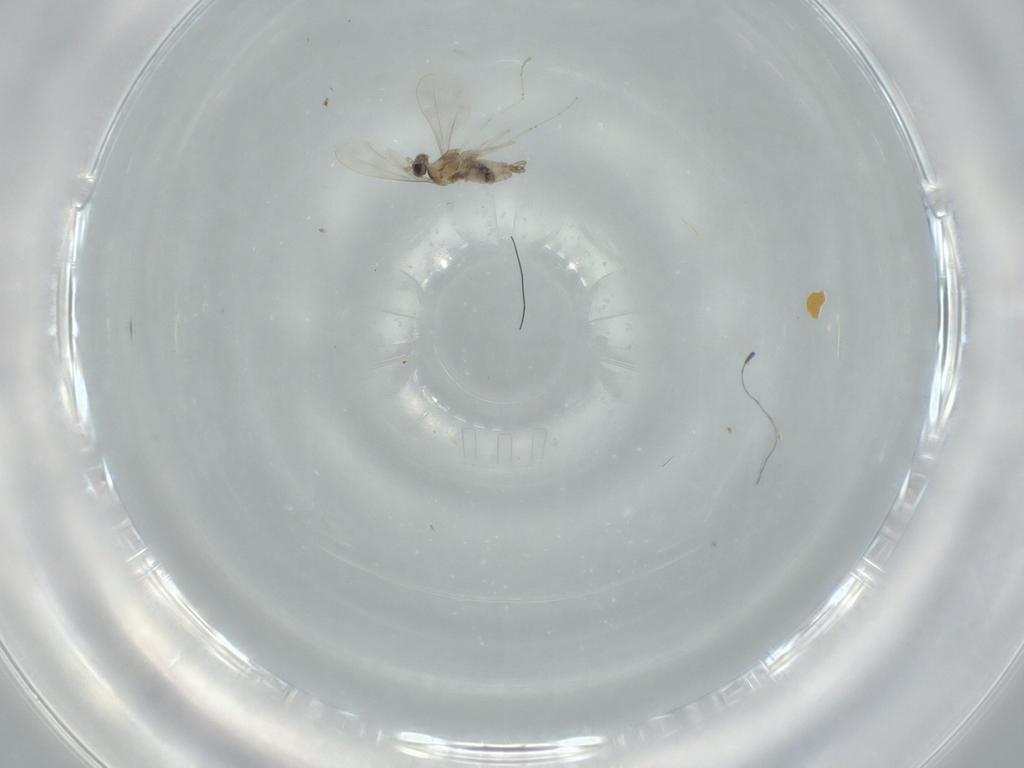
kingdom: Animalia
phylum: Arthropoda
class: Insecta
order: Diptera
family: Cecidomyiidae
